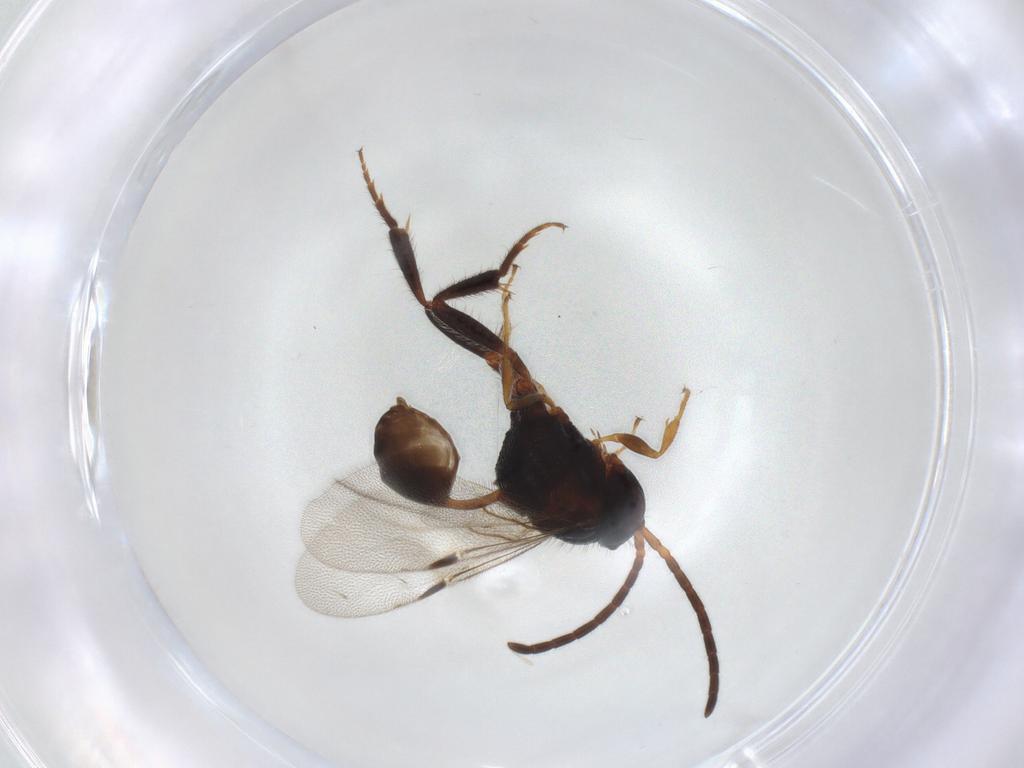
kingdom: Animalia
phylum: Arthropoda
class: Insecta
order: Hymenoptera
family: Evaniidae
